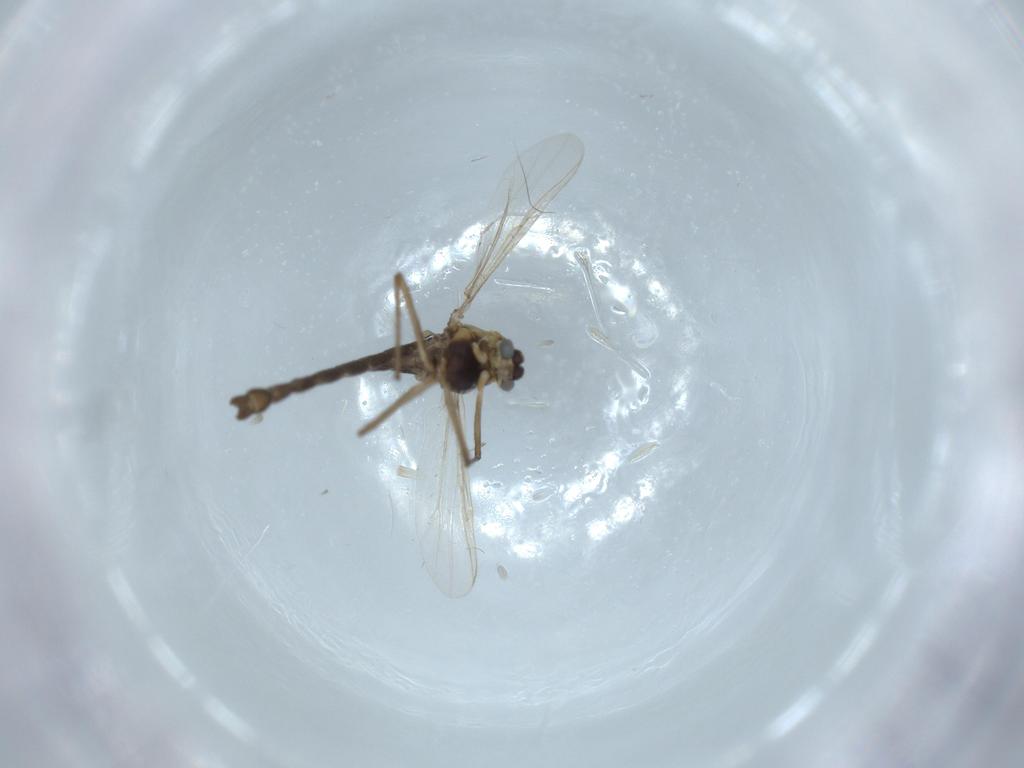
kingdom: Animalia
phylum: Arthropoda
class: Insecta
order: Diptera
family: Chironomidae
